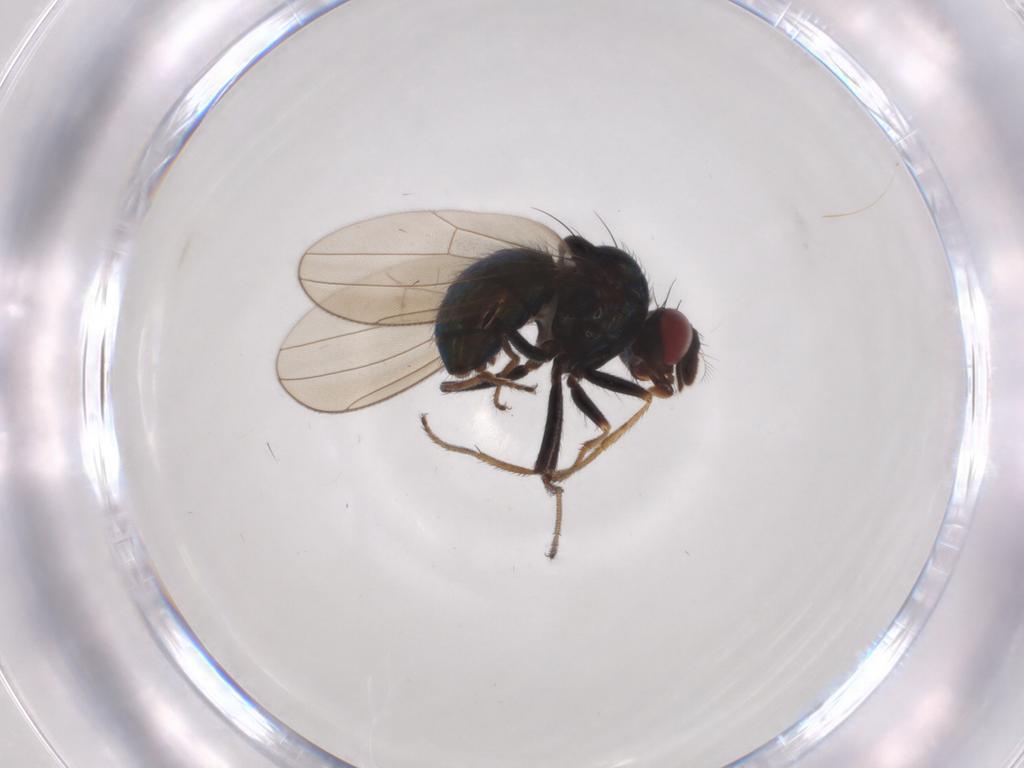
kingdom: Animalia
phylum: Arthropoda
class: Insecta
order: Diptera
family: Ephydridae
